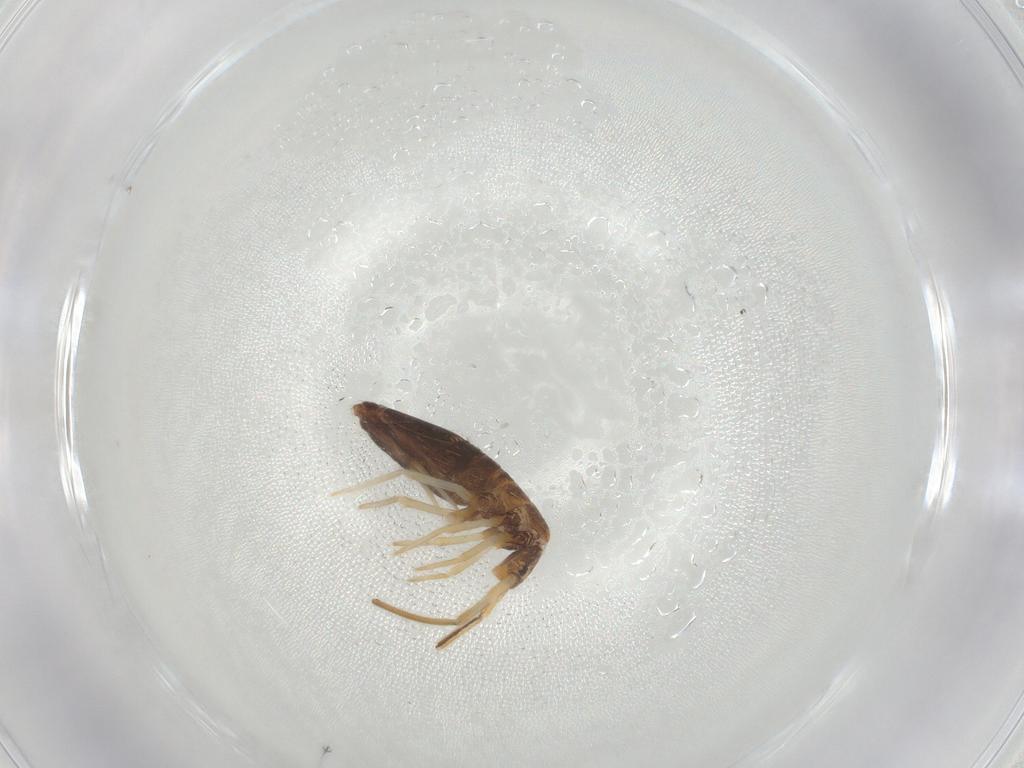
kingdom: Animalia
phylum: Arthropoda
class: Collembola
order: Entomobryomorpha
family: Entomobryidae
